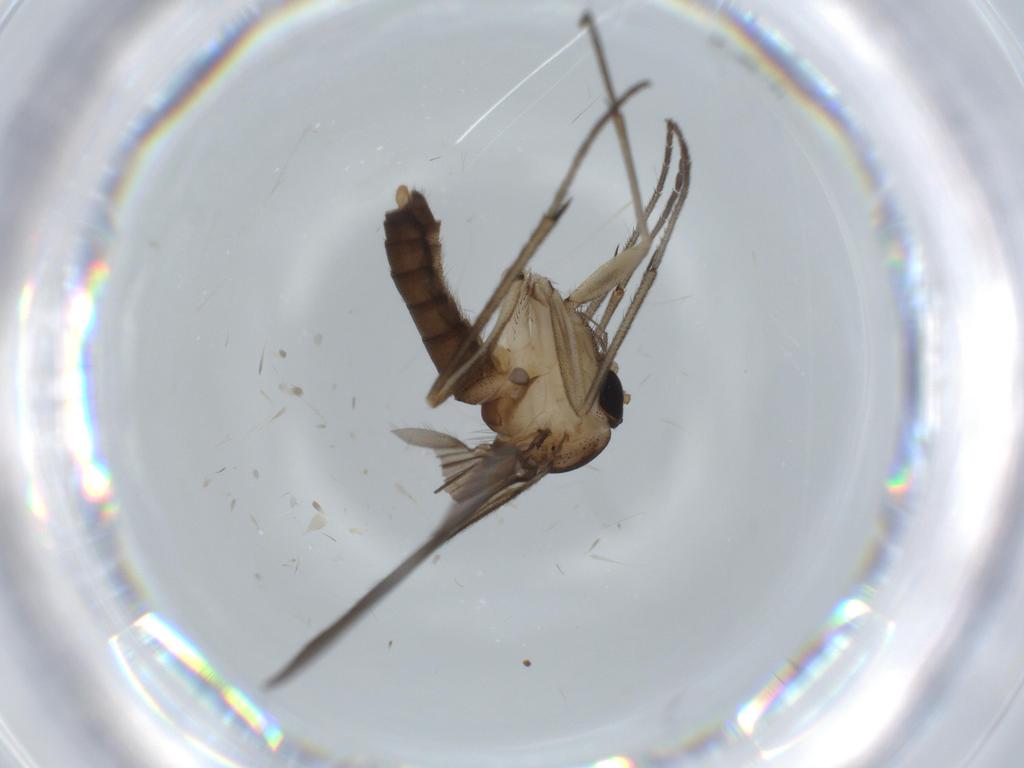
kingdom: Animalia
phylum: Arthropoda
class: Insecta
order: Diptera
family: Cecidomyiidae
